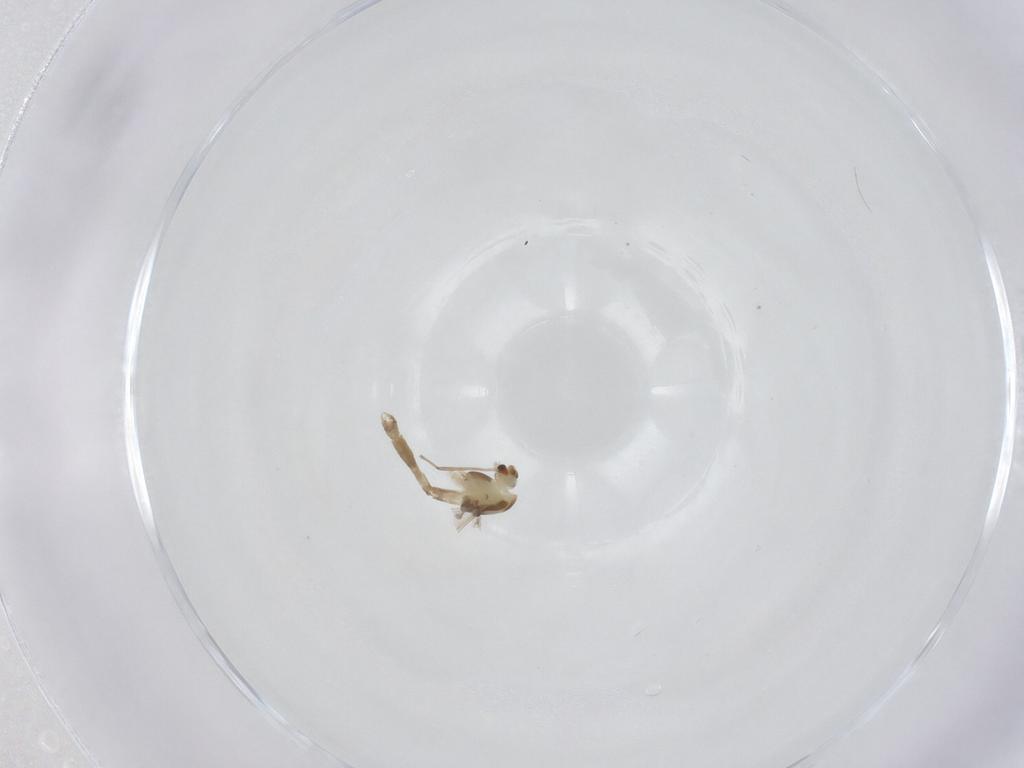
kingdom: Animalia
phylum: Arthropoda
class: Insecta
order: Diptera
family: Chironomidae
